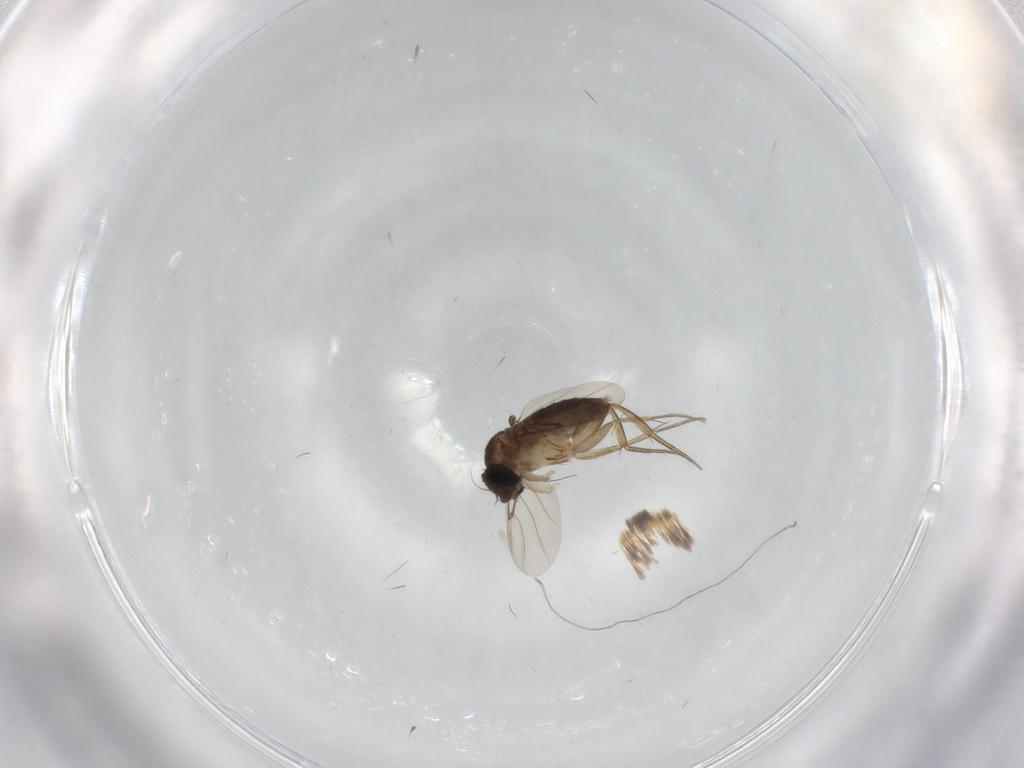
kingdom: Animalia
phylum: Arthropoda
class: Insecta
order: Diptera
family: Phoridae
